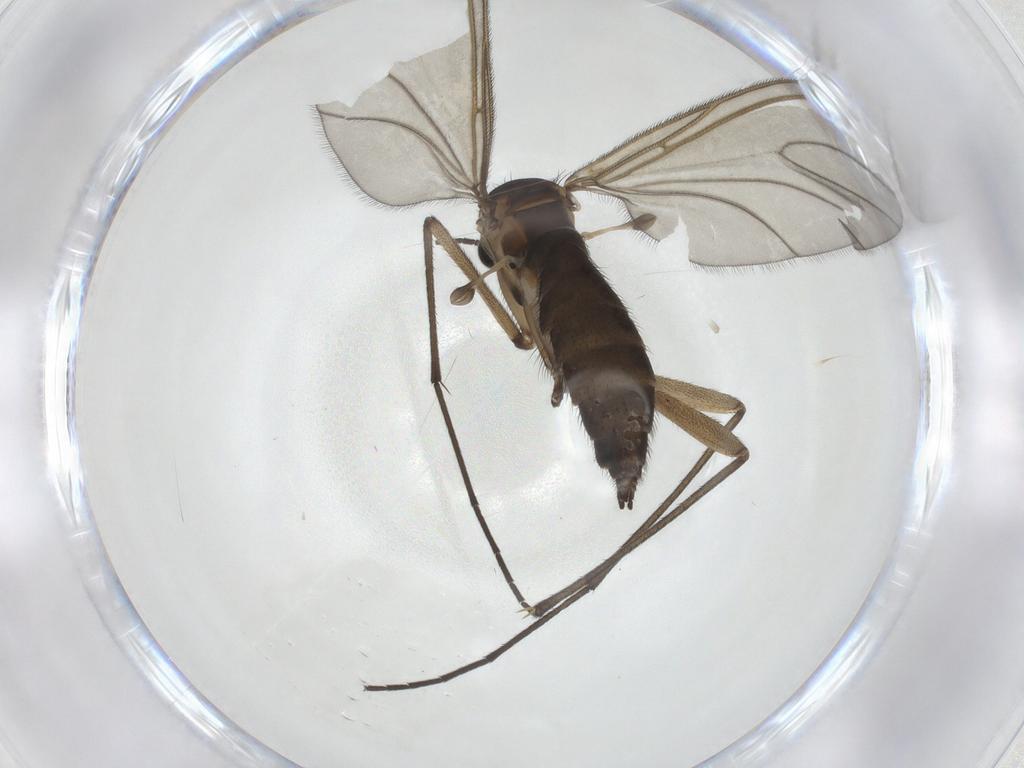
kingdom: Animalia
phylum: Arthropoda
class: Insecta
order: Diptera
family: Sciaridae
